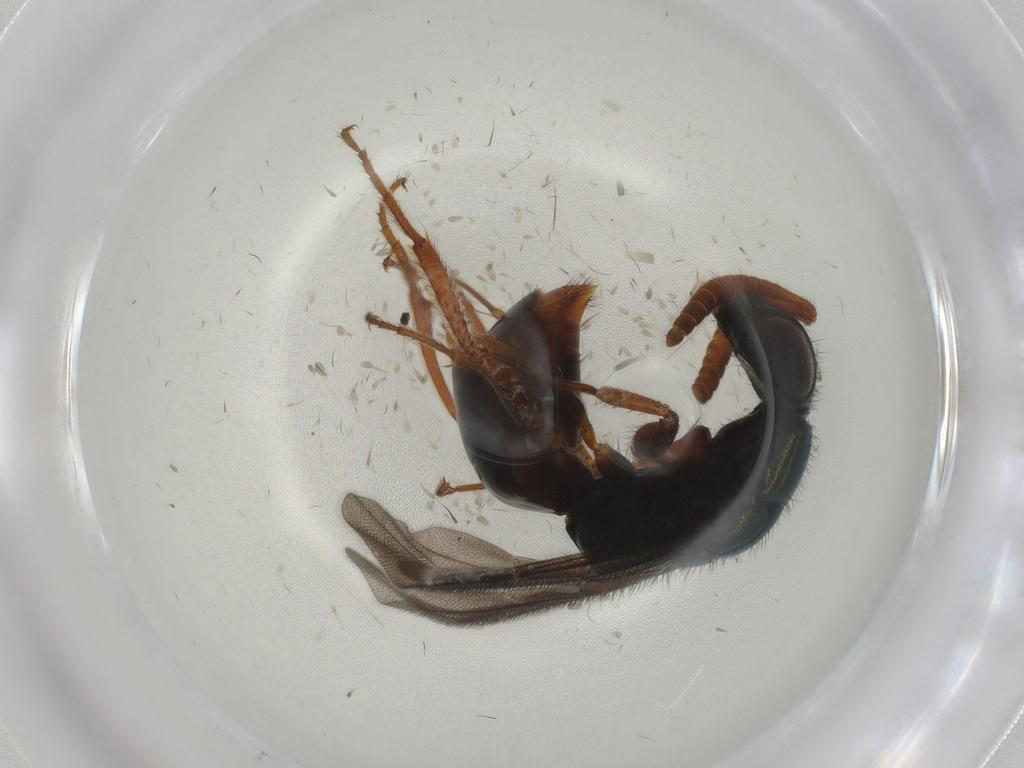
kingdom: Animalia
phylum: Arthropoda
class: Insecta
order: Hymenoptera
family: Chrysididae
